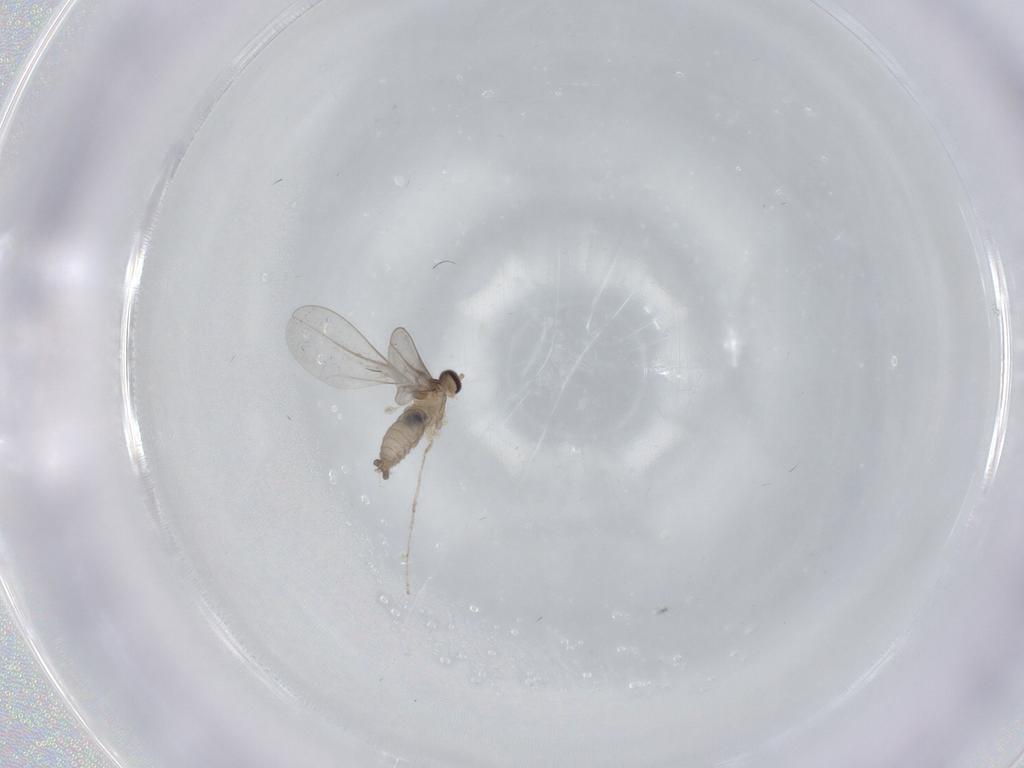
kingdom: Animalia
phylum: Arthropoda
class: Insecta
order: Diptera
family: Cecidomyiidae
